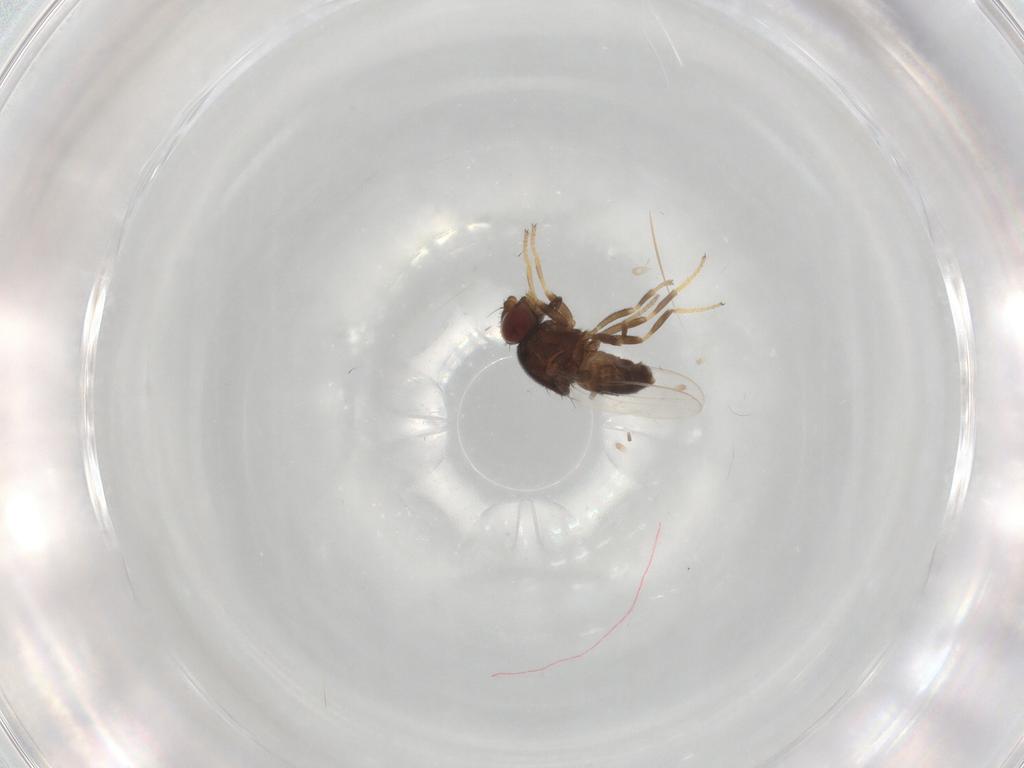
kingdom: Animalia
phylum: Arthropoda
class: Insecta
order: Diptera
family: Chloropidae
